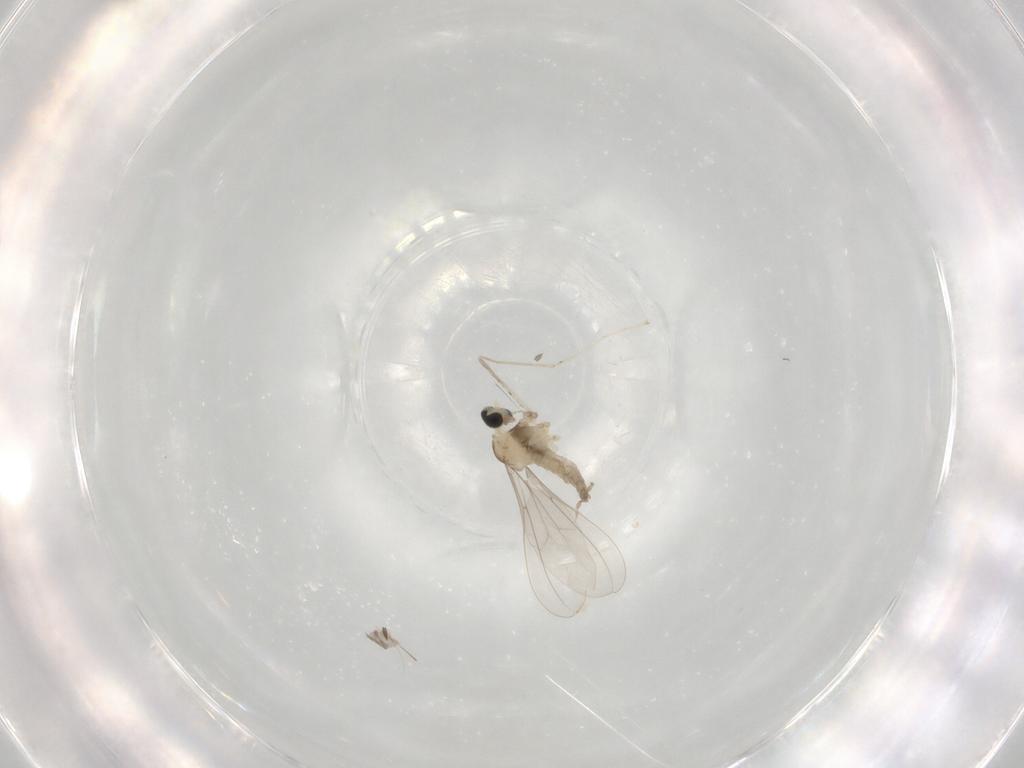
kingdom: Animalia
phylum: Arthropoda
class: Insecta
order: Diptera
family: Cecidomyiidae
